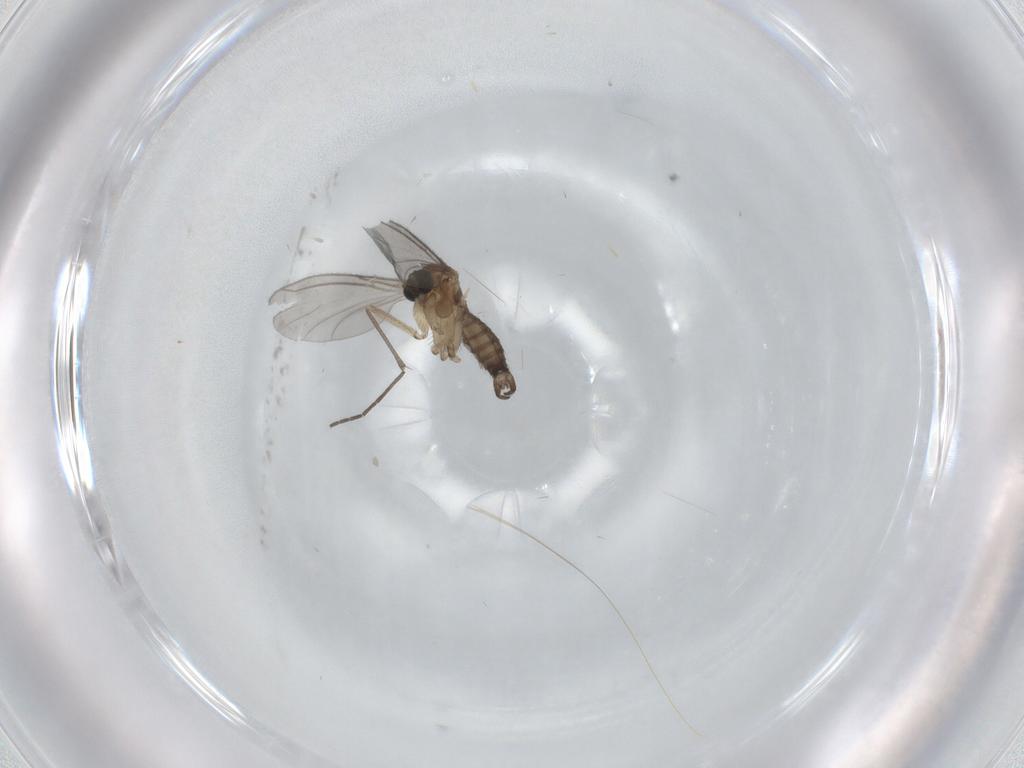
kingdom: Animalia
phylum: Arthropoda
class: Insecta
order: Diptera
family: Sciaridae
